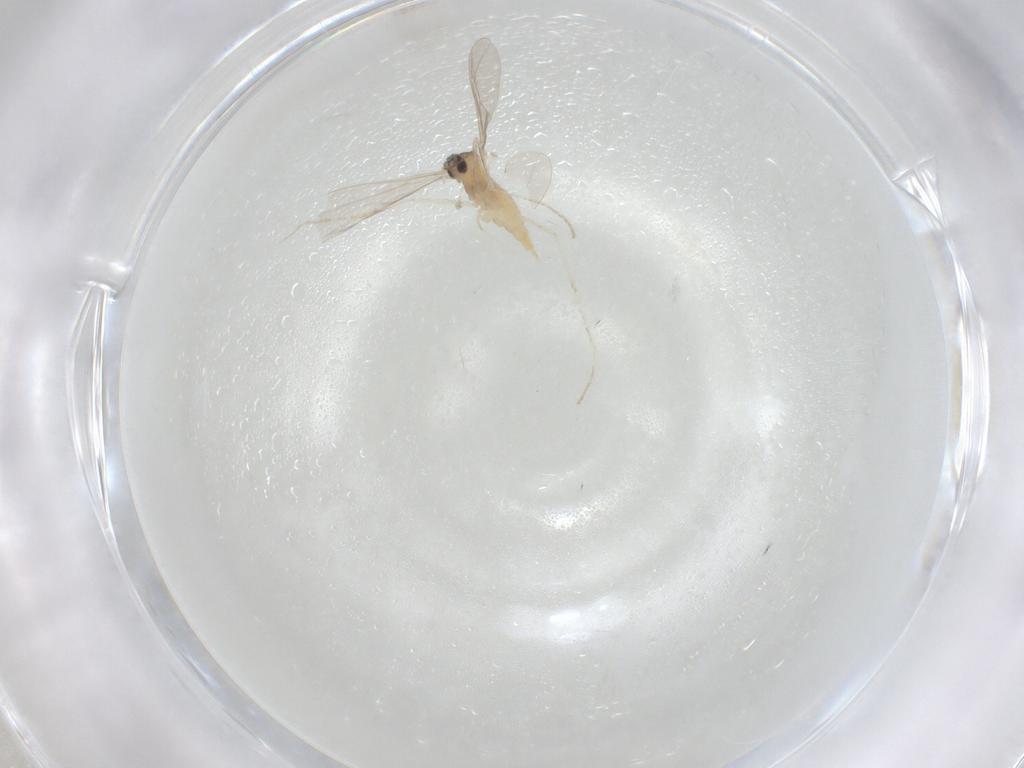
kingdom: Animalia
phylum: Arthropoda
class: Insecta
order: Diptera
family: Cecidomyiidae
